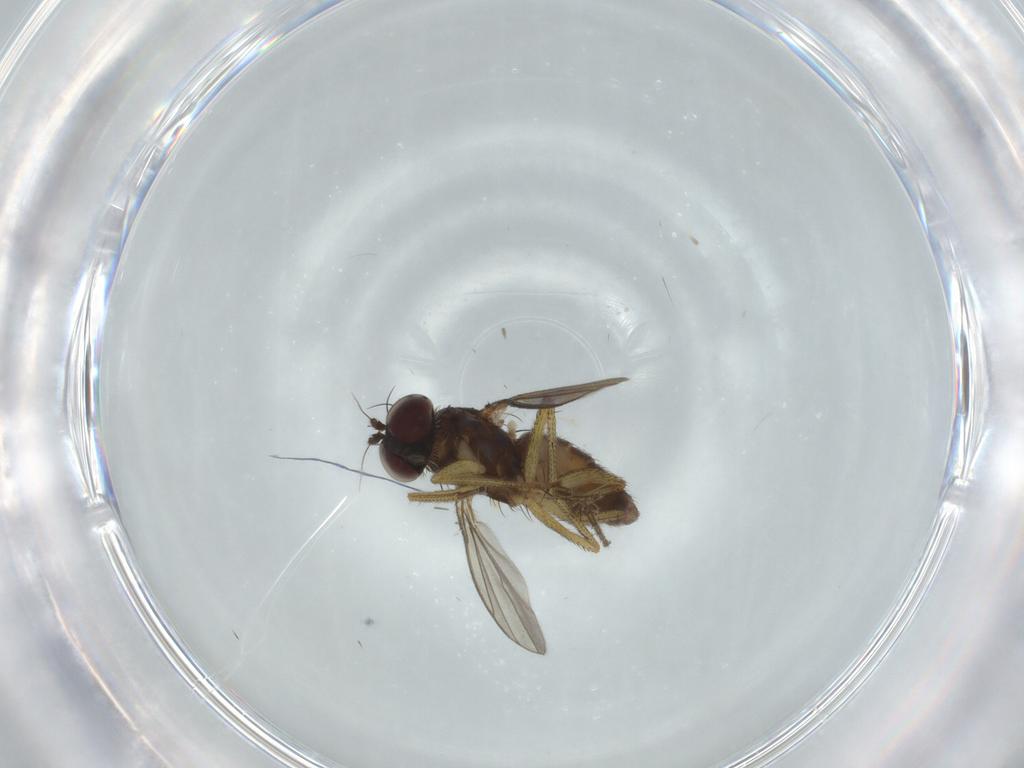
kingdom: Animalia
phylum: Arthropoda
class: Insecta
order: Diptera
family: Dolichopodidae
